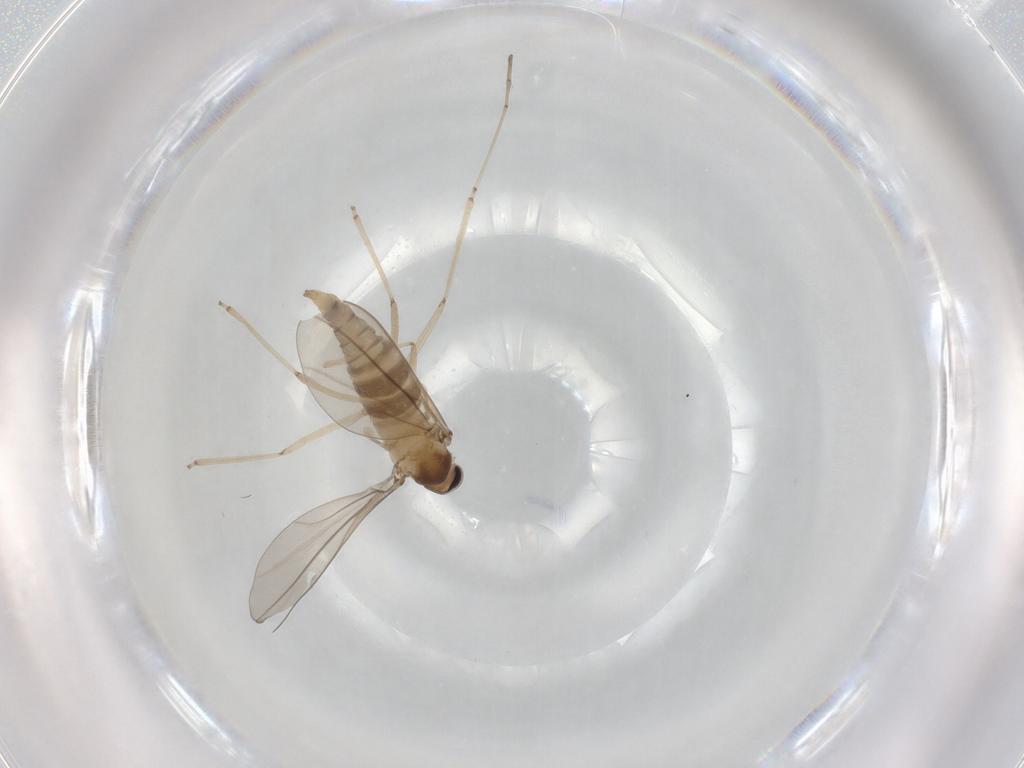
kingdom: Animalia
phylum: Arthropoda
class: Insecta
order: Diptera
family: Cecidomyiidae
